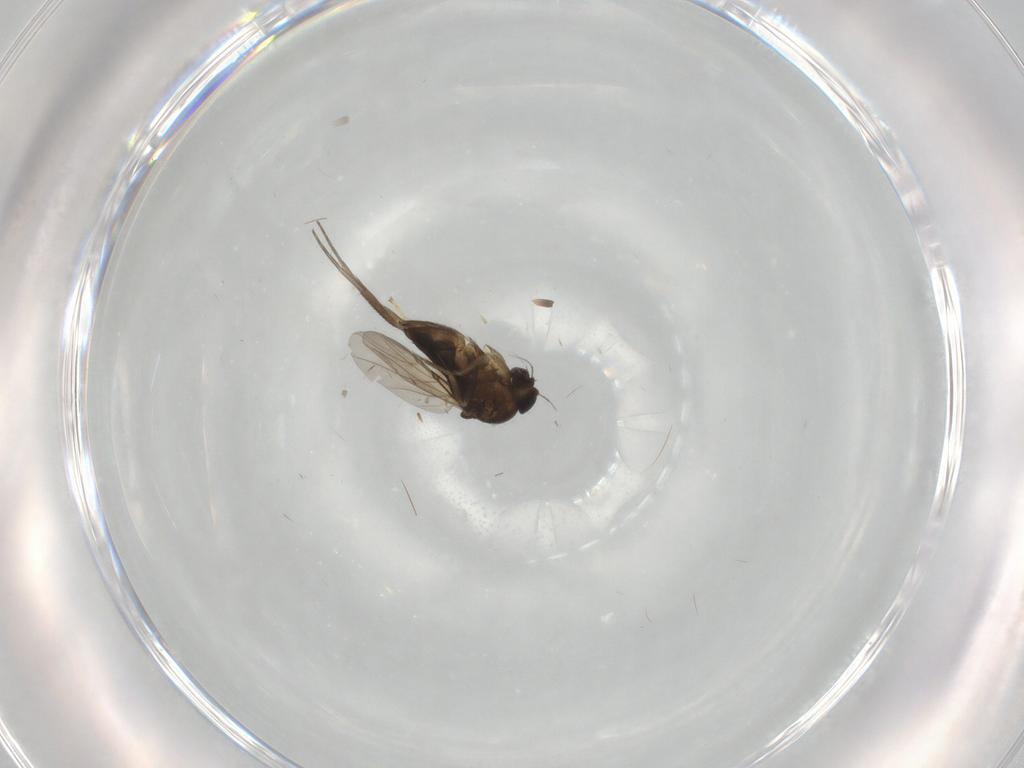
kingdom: Animalia
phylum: Arthropoda
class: Insecta
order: Diptera
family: Phoridae
